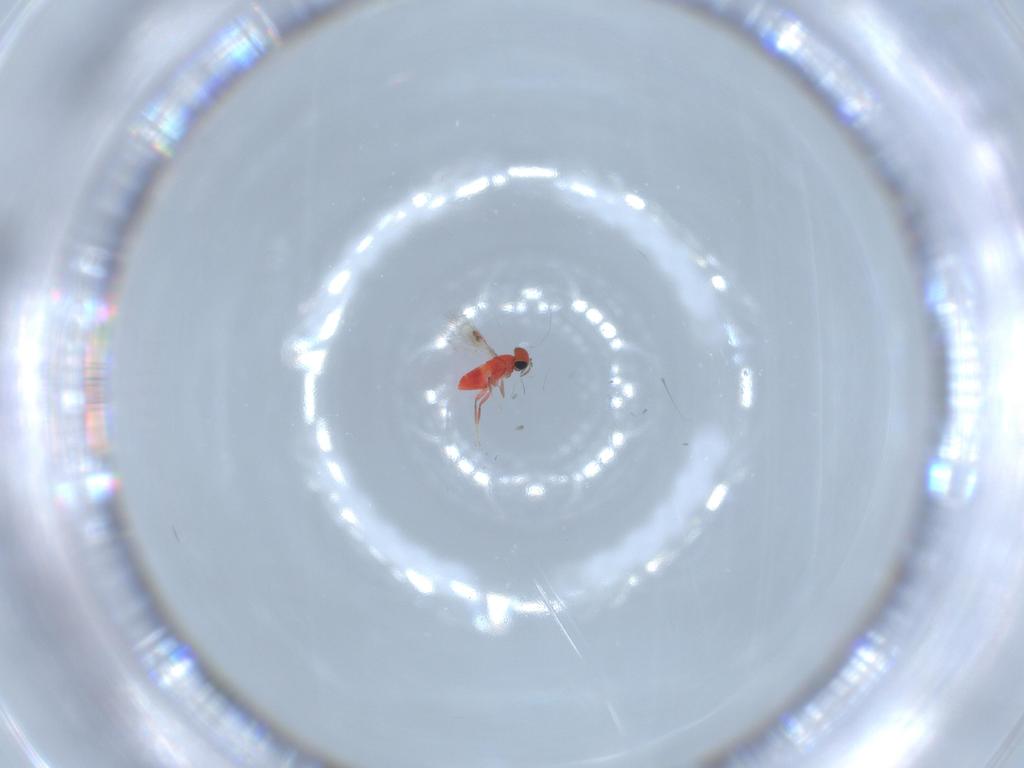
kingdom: Animalia
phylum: Arthropoda
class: Insecta
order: Hymenoptera
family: Trichogrammatidae
